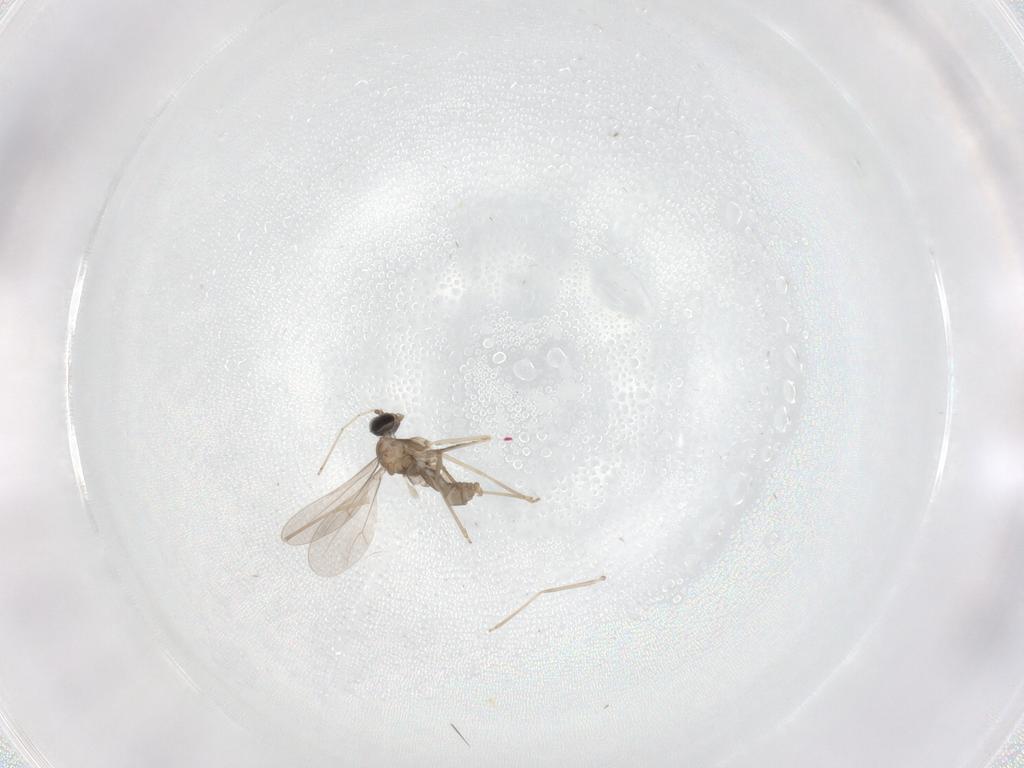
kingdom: Animalia
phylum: Arthropoda
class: Insecta
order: Diptera
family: Cecidomyiidae
